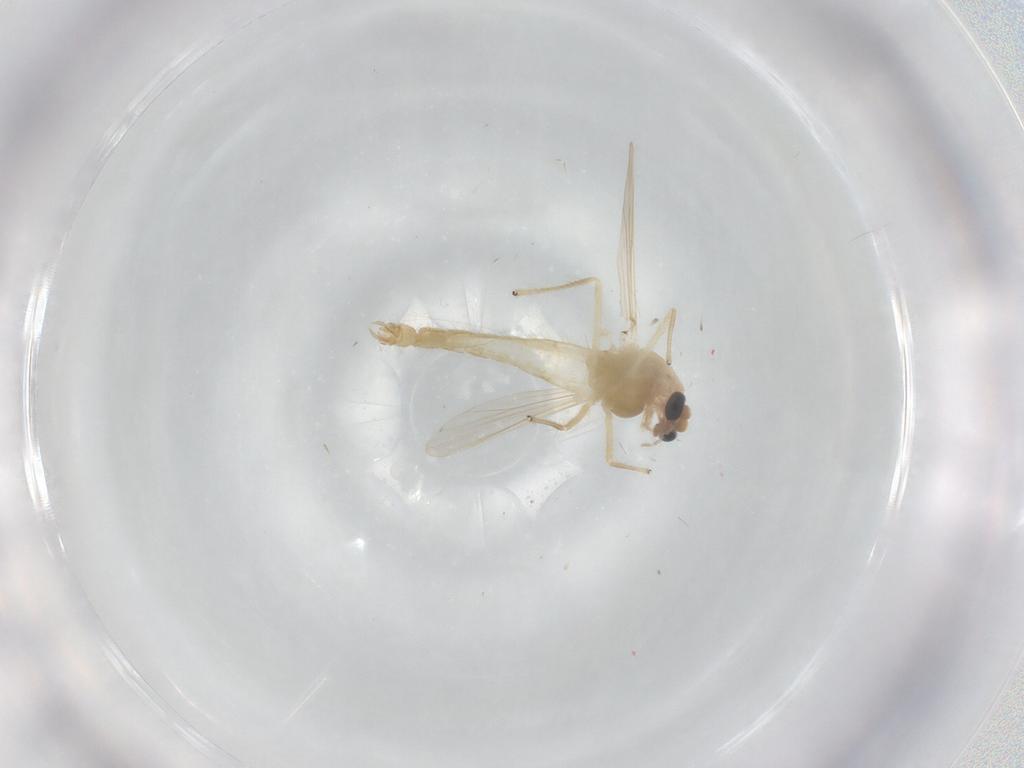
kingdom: Animalia
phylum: Arthropoda
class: Insecta
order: Diptera
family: Chironomidae
